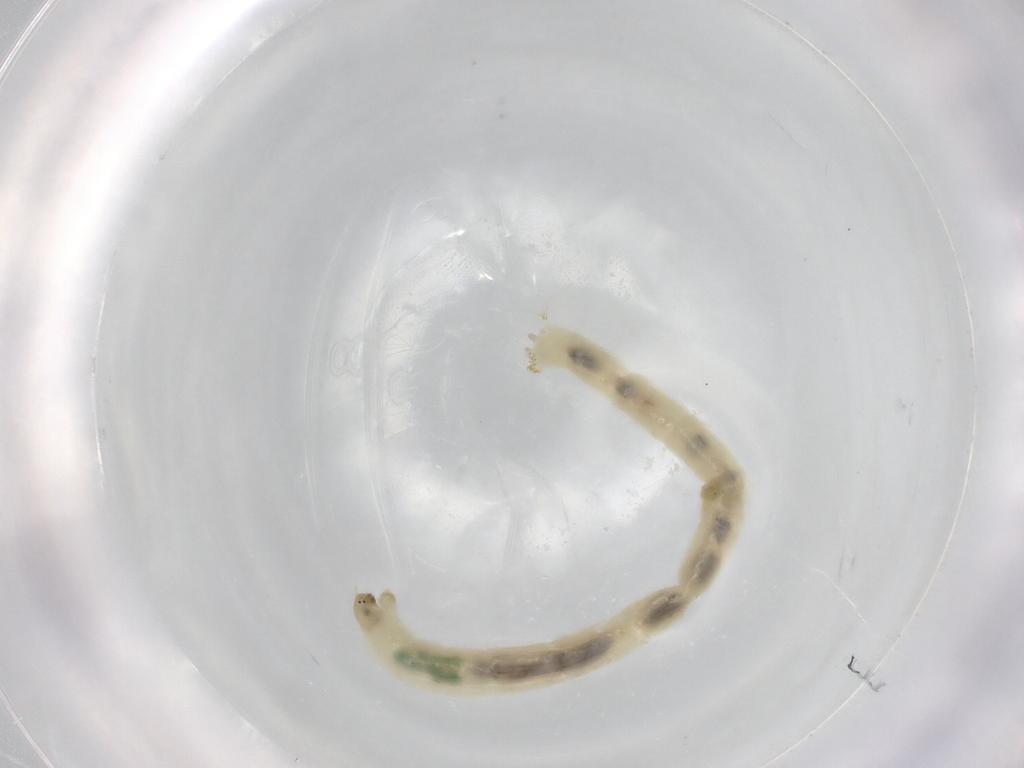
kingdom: Animalia
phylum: Arthropoda
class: Insecta
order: Diptera
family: Chironomidae
